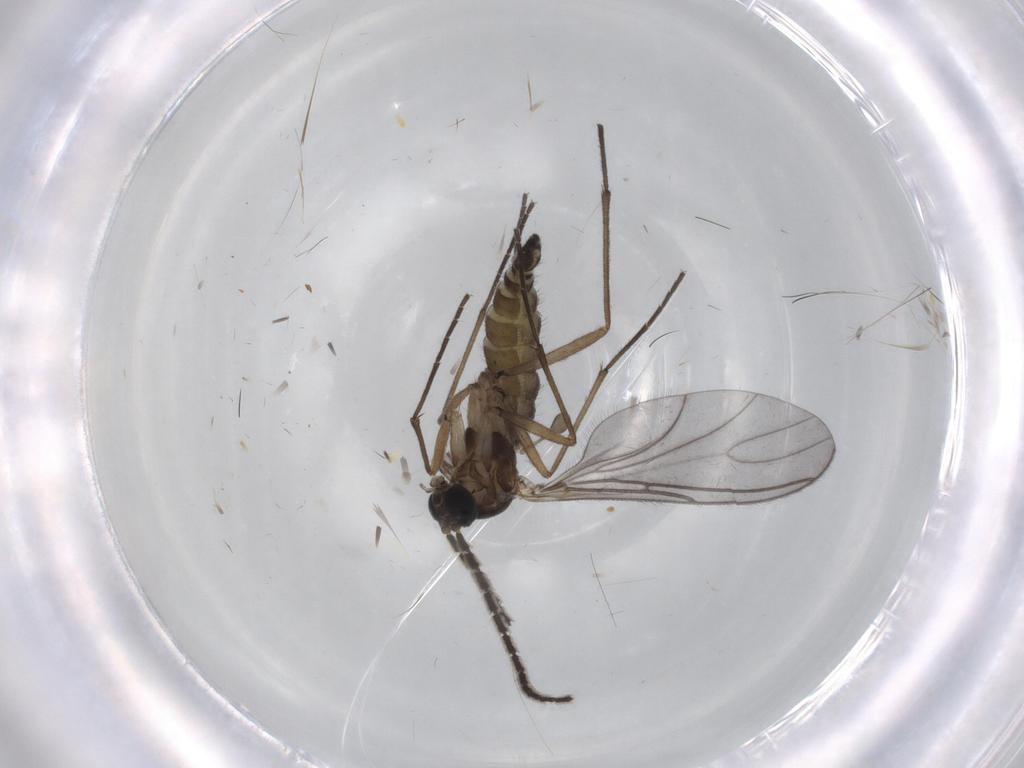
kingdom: Animalia
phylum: Arthropoda
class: Insecta
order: Diptera
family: Sciaridae
